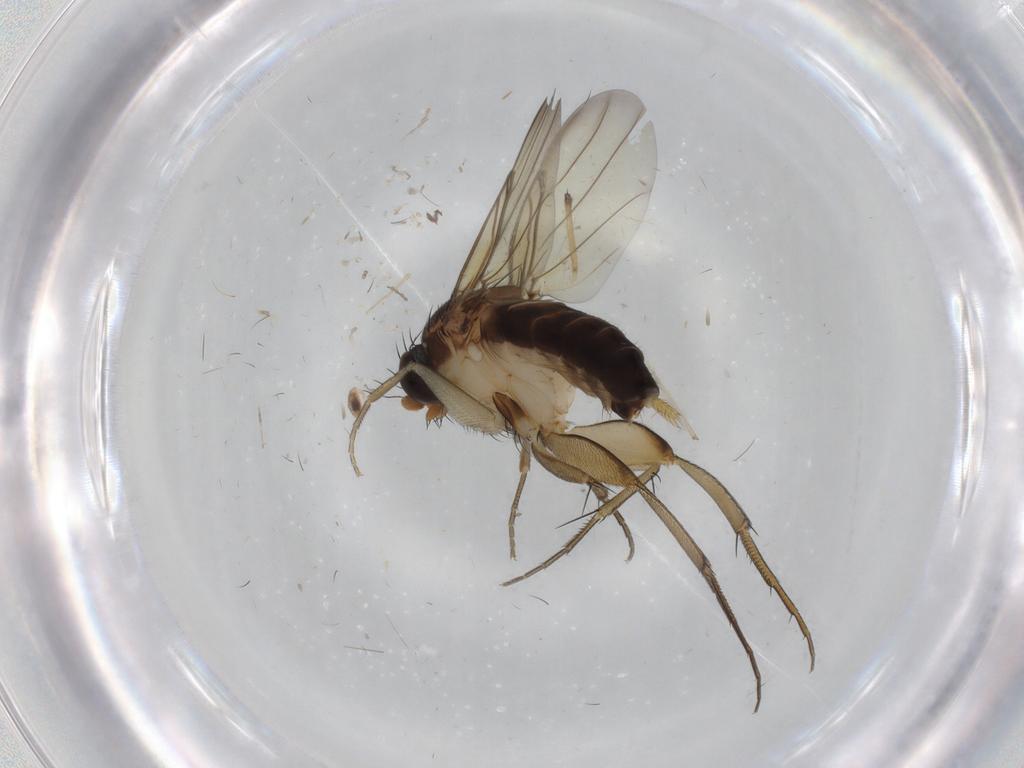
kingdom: Animalia
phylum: Arthropoda
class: Insecta
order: Diptera
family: Phoridae
